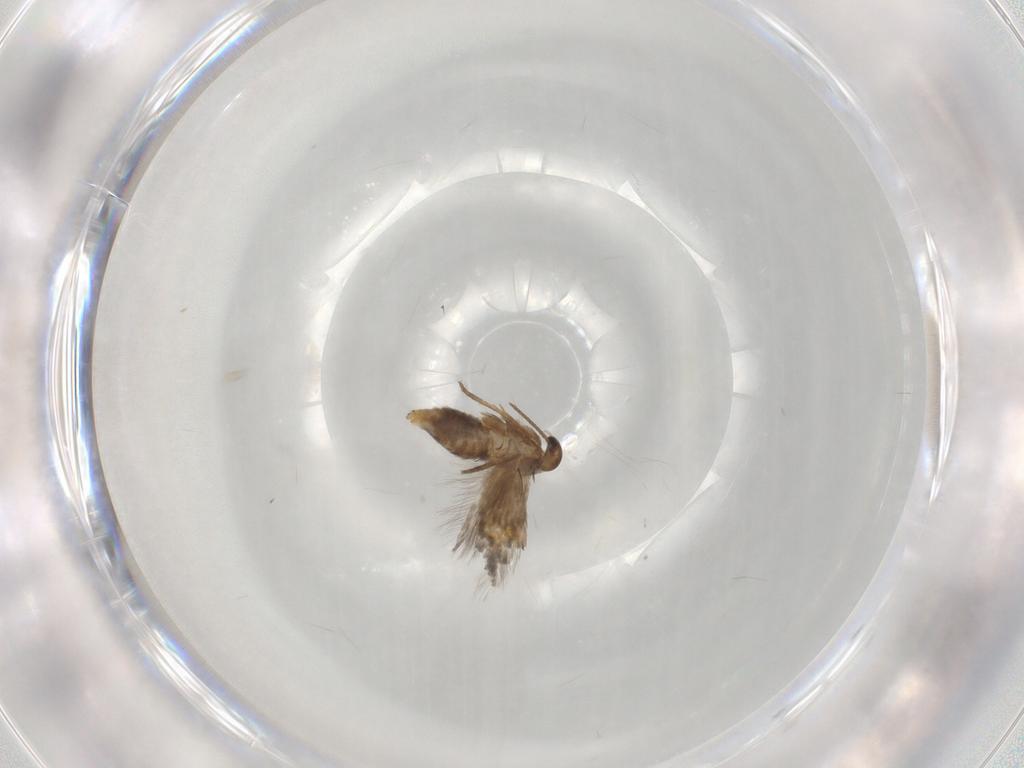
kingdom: Animalia
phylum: Arthropoda
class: Insecta
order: Lepidoptera
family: Heliozelidae
